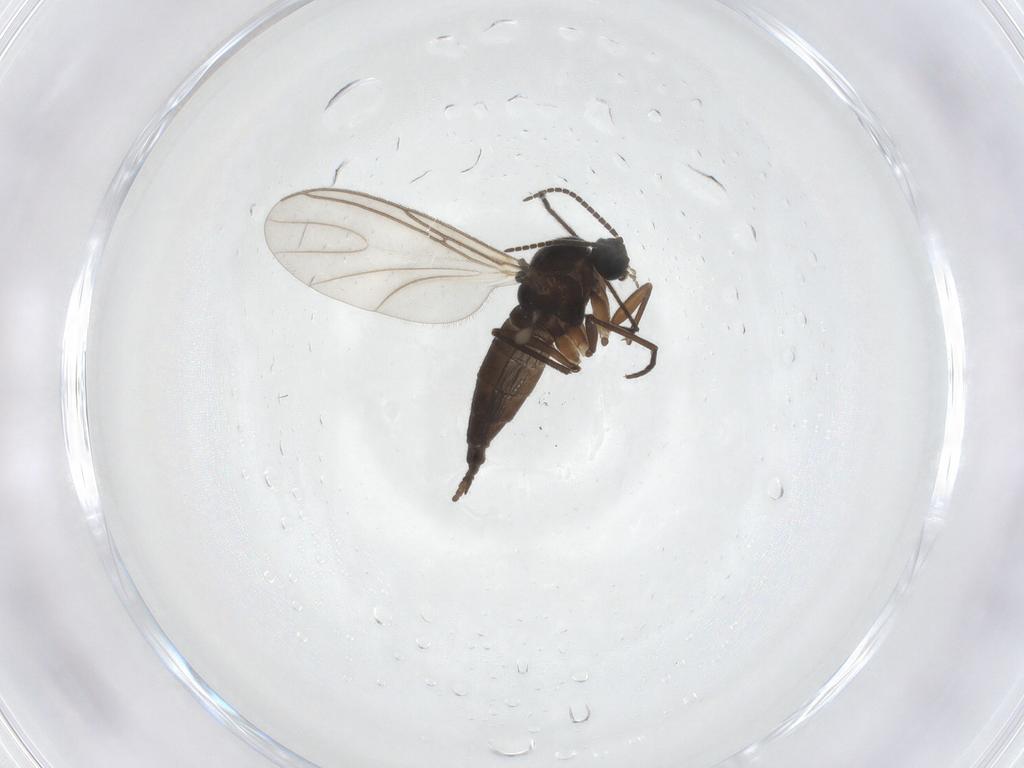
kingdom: Animalia
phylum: Arthropoda
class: Insecta
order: Diptera
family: Sciaridae
